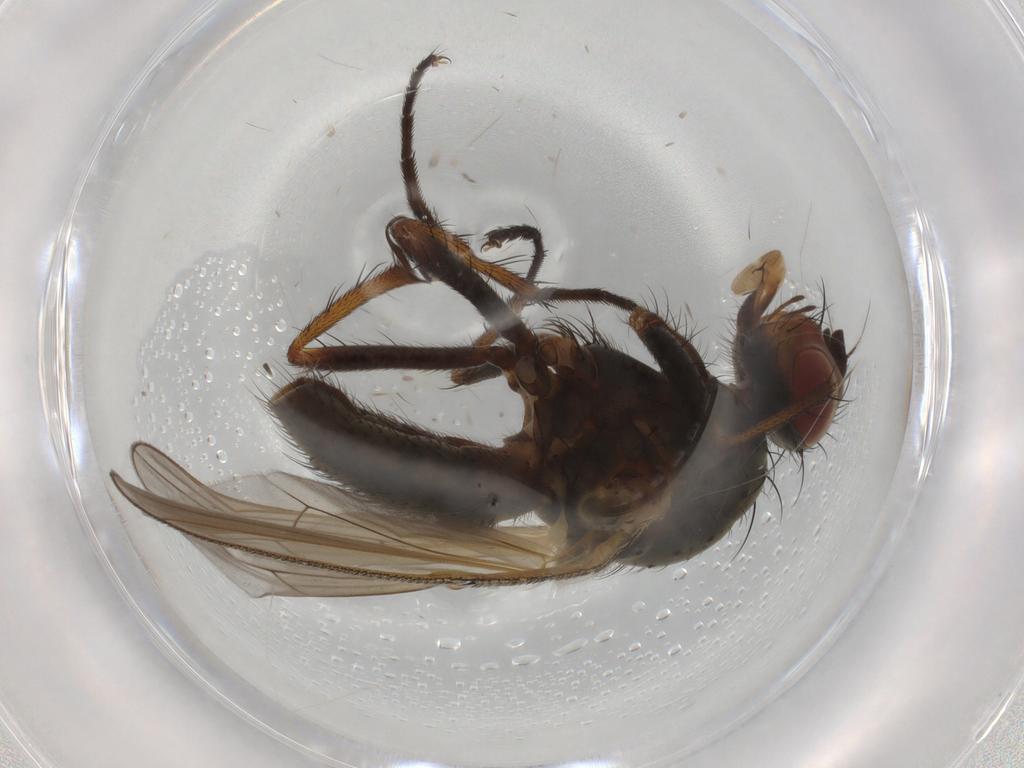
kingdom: Animalia
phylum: Arthropoda
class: Insecta
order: Diptera
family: Anthomyiidae
